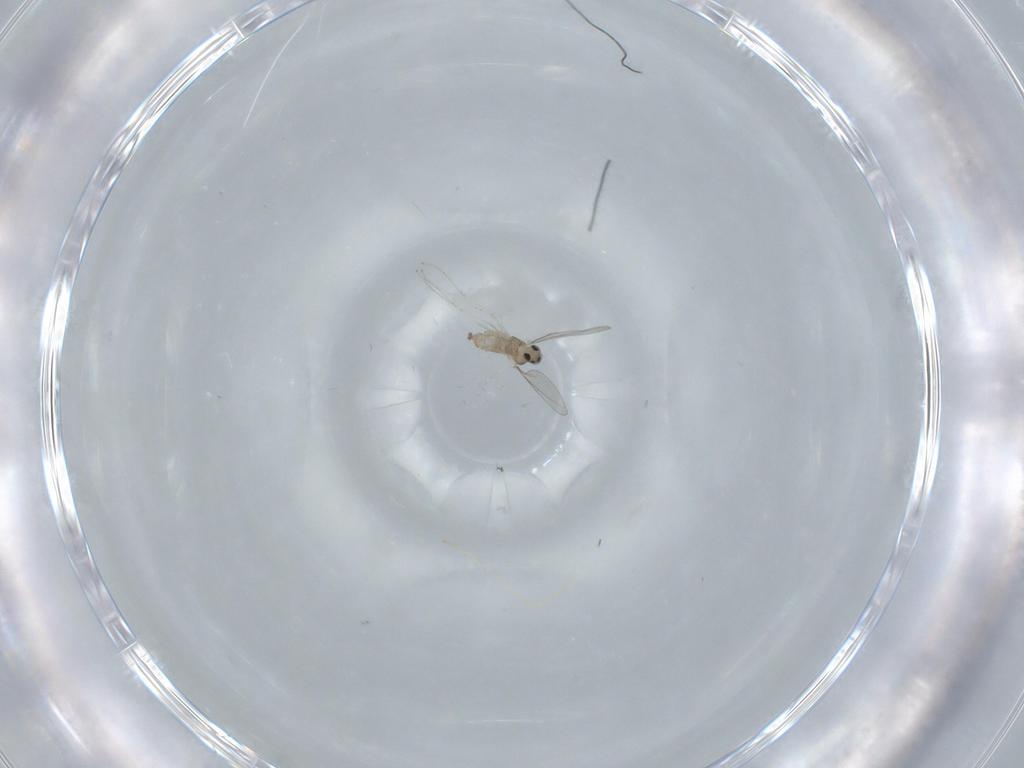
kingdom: Animalia
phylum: Arthropoda
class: Insecta
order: Diptera
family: Cecidomyiidae
